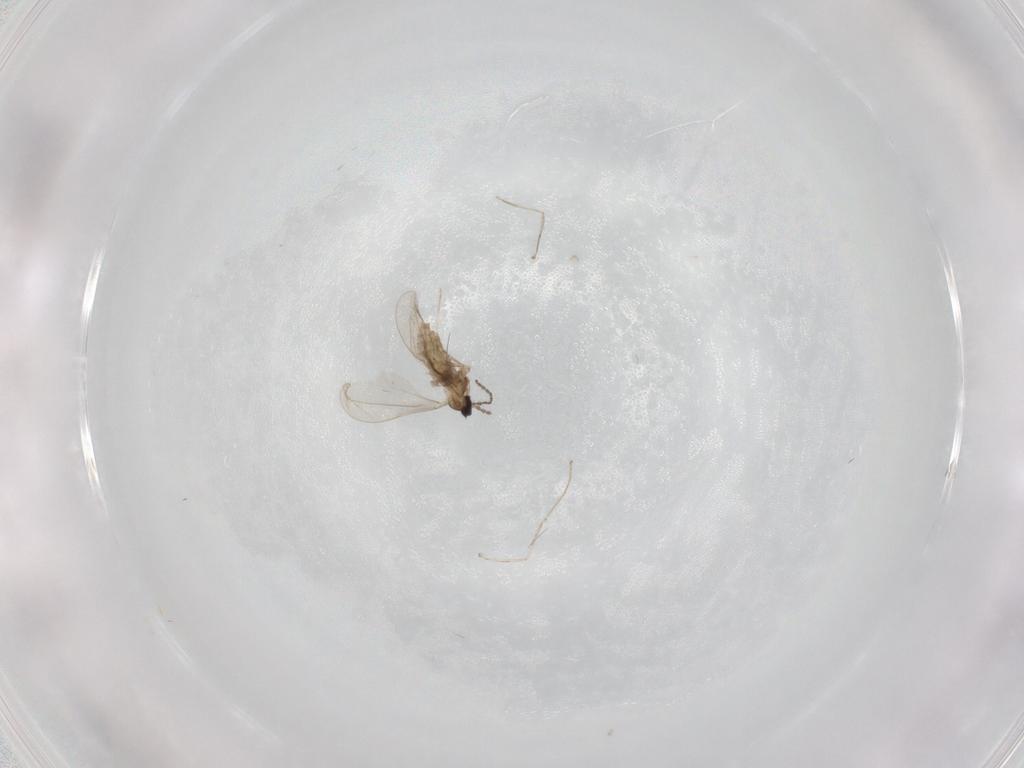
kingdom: Animalia
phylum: Arthropoda
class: Insecta
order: Diptera
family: Cecidomyiidae
